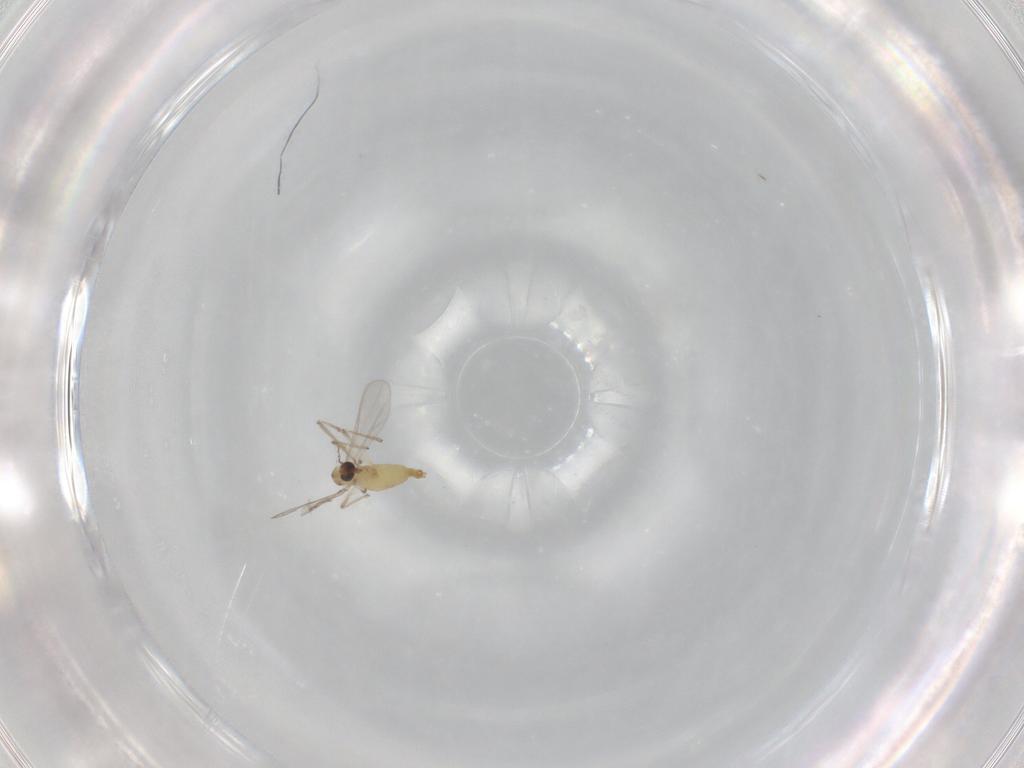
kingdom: Animalia
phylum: Arthropoda
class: Insecta
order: Diptera
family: Chironomidae
